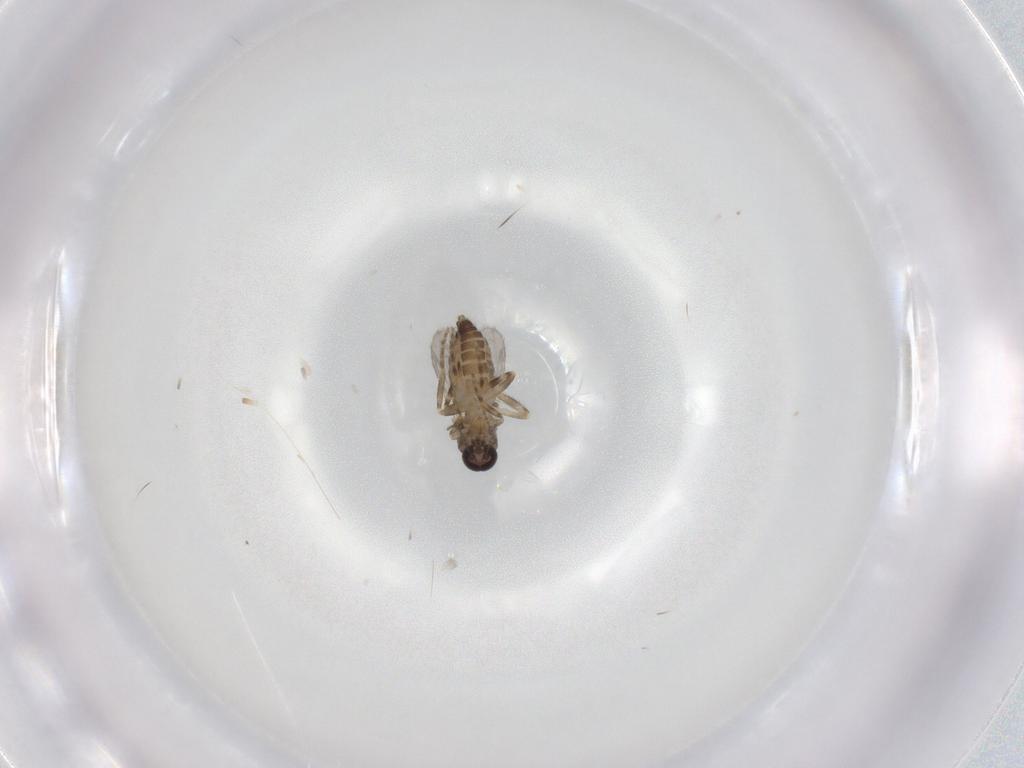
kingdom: Animalia
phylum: Arthropoda
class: Insecta
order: Diptera
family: Ceratopogonidae
